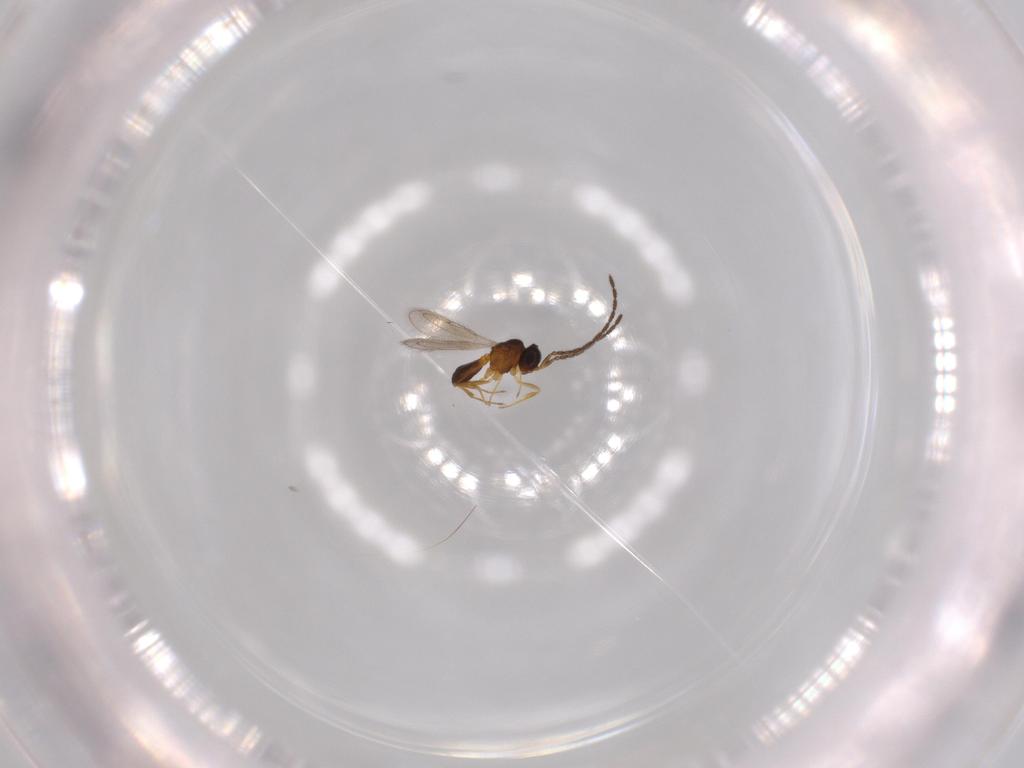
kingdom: Animalia
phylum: Arthropoda
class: Insecta
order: Hymenoptera
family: Scelionidae
